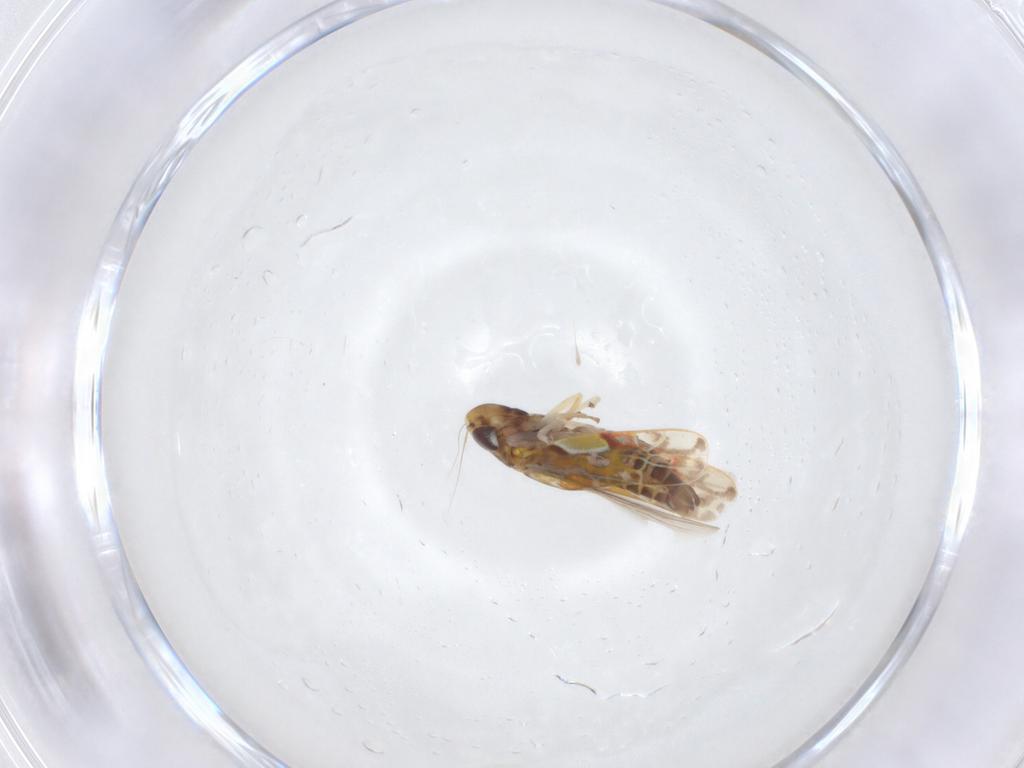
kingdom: Animalia
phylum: Arthropoda
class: Insecta
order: Hemiptera
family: Cicadellidae
